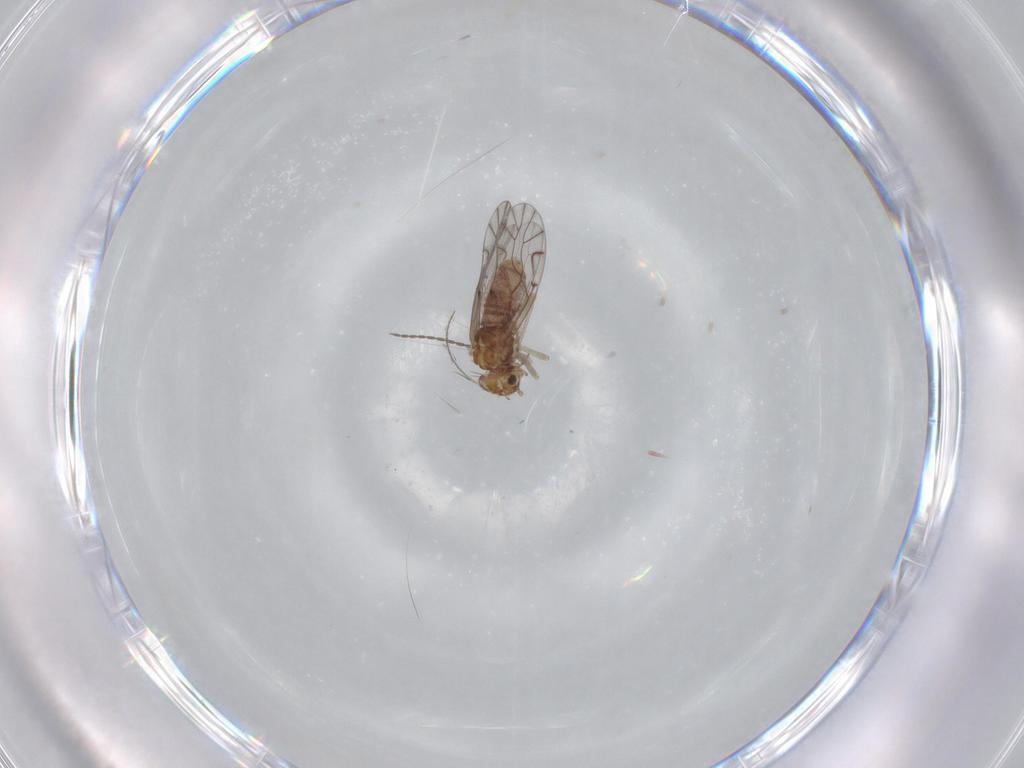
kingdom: Animalia
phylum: Arthropoda
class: Insecta
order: Psocodea
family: Lachesillidae
